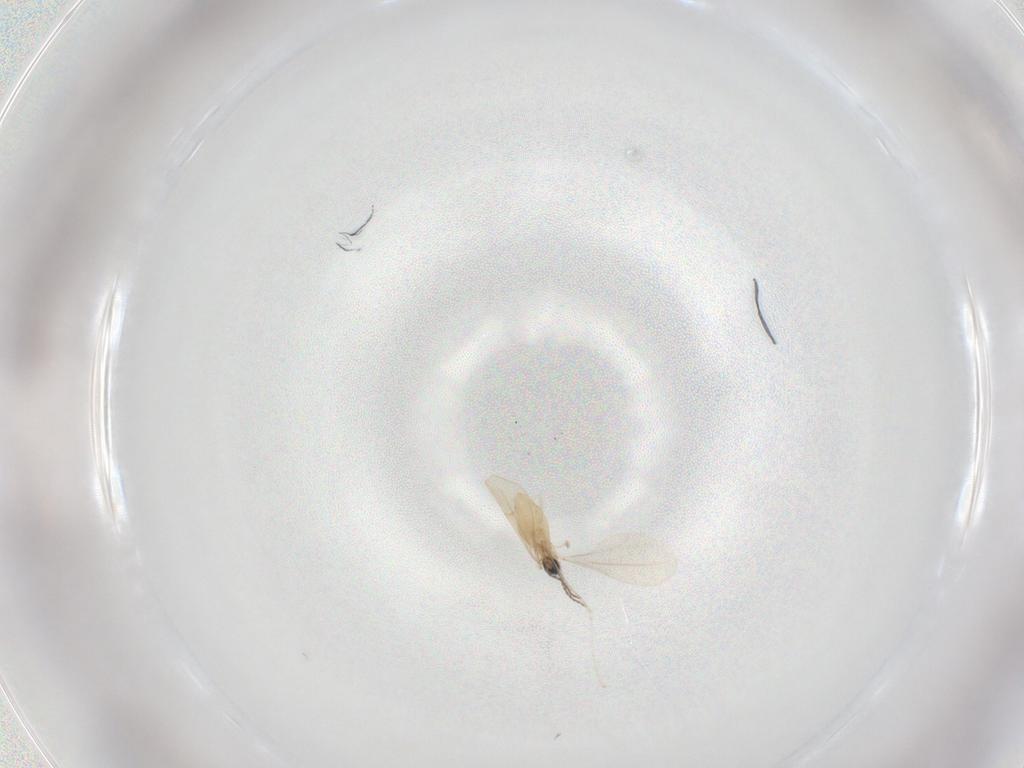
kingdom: Animalia
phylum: Arthropoda
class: Insecta
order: Diptera
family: Cecidomyiidae
